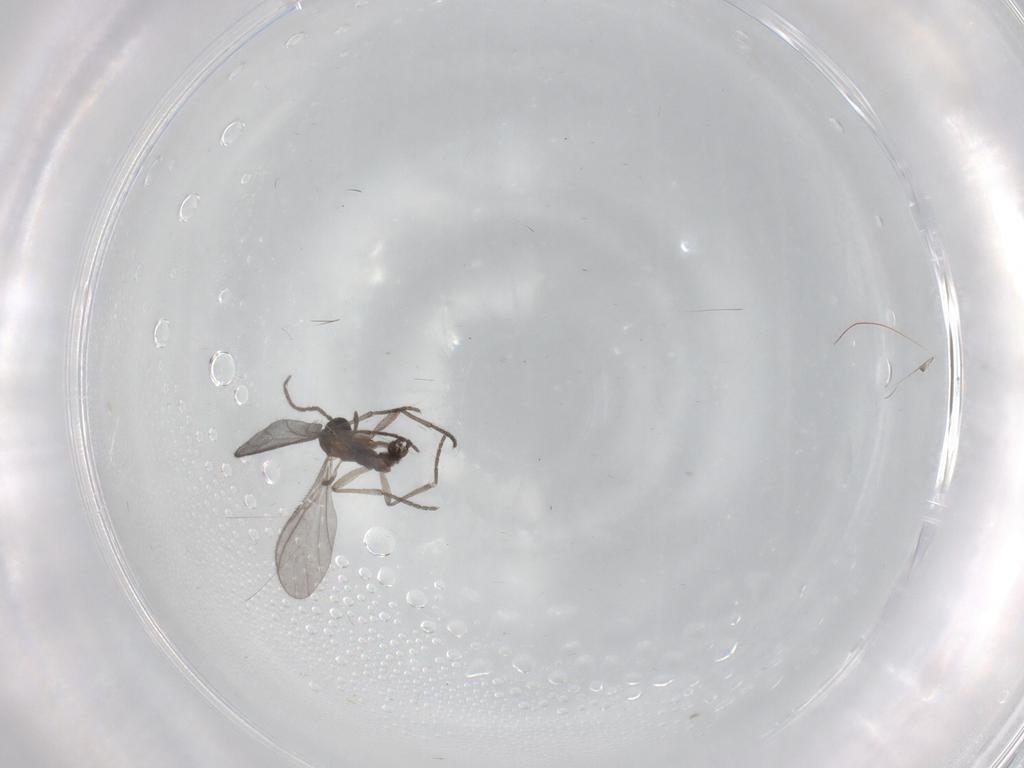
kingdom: Animalia
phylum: Arthropoda
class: Insecta
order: Diptera
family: Sciaridae
